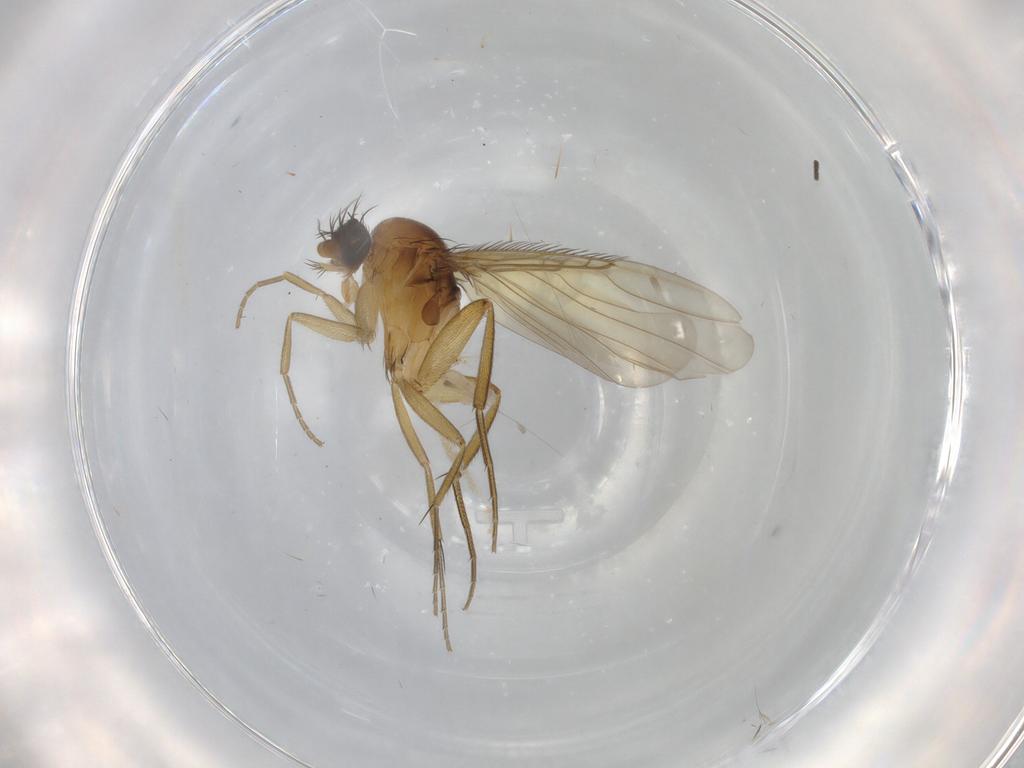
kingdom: Animalia
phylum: Arthropoda
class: Insecta
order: Diptera
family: Phoridae
